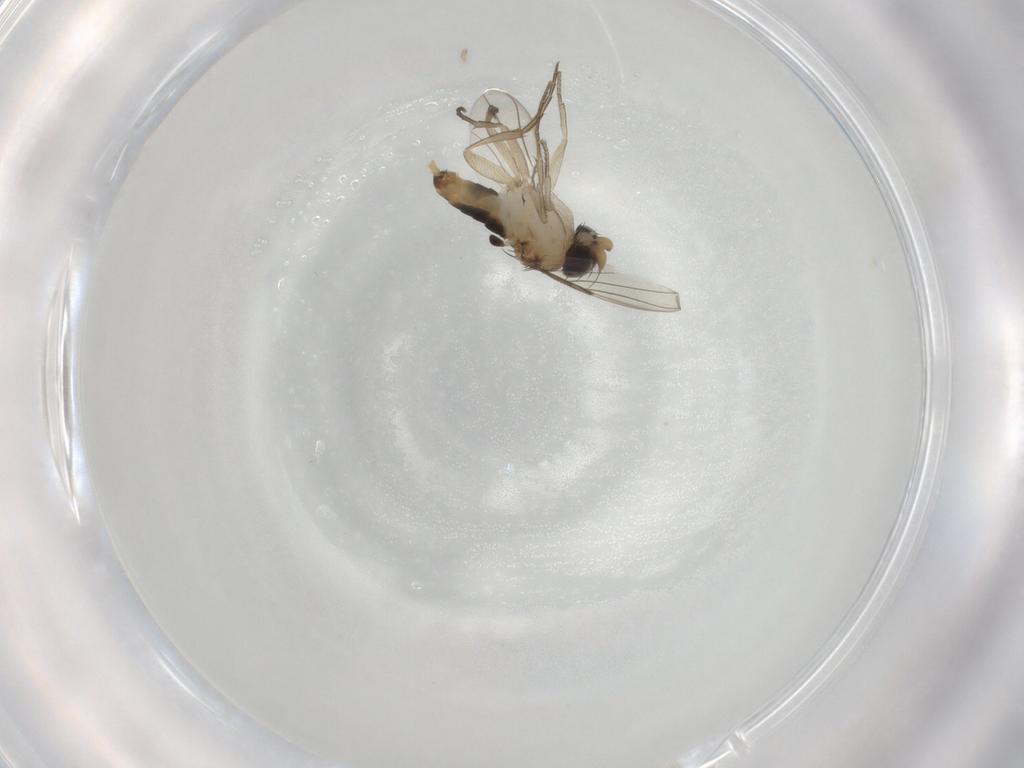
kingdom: Animalia
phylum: Arthropoda
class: Insecta
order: Diptera
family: Phoridae
